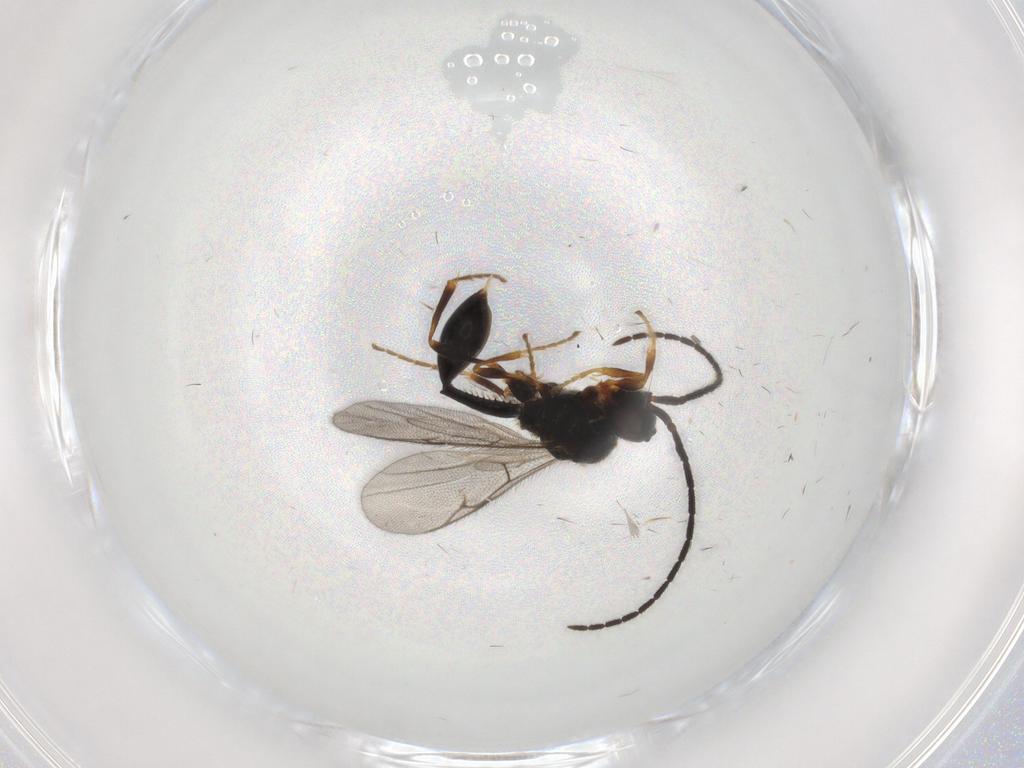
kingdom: Animalia
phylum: Arthropoda
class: Insecta
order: Hymenoptera
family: Diapriidae
